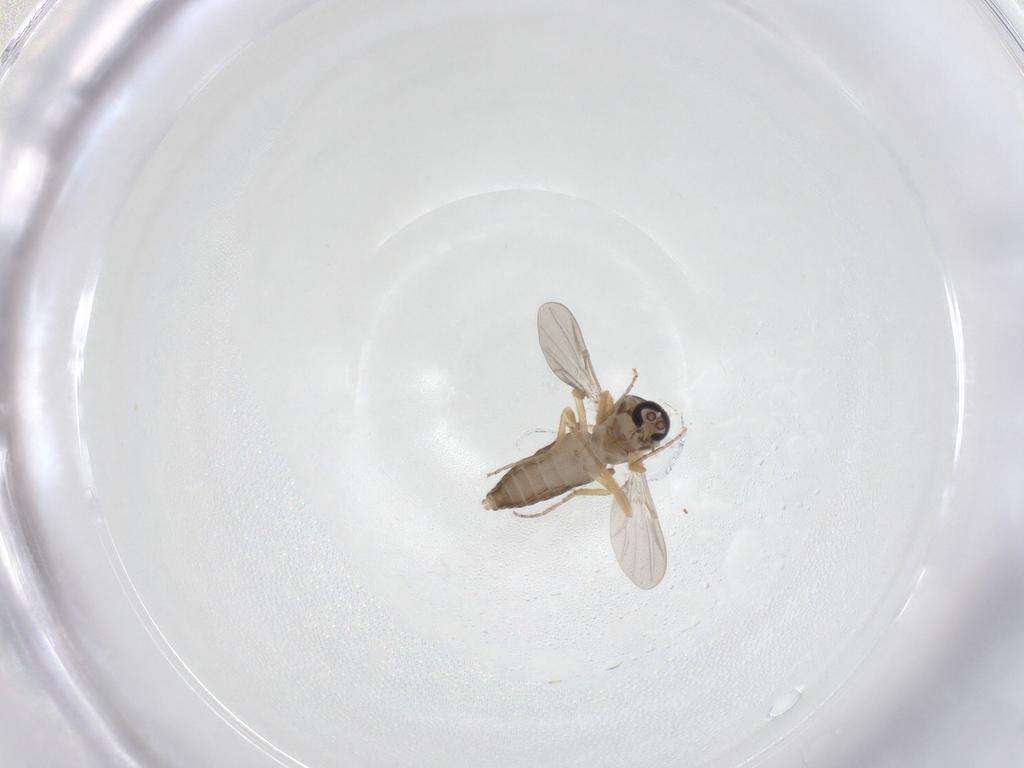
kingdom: Animalia
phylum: Arthropoda
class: Insecta
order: Diptera
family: Ceratopogonidae
